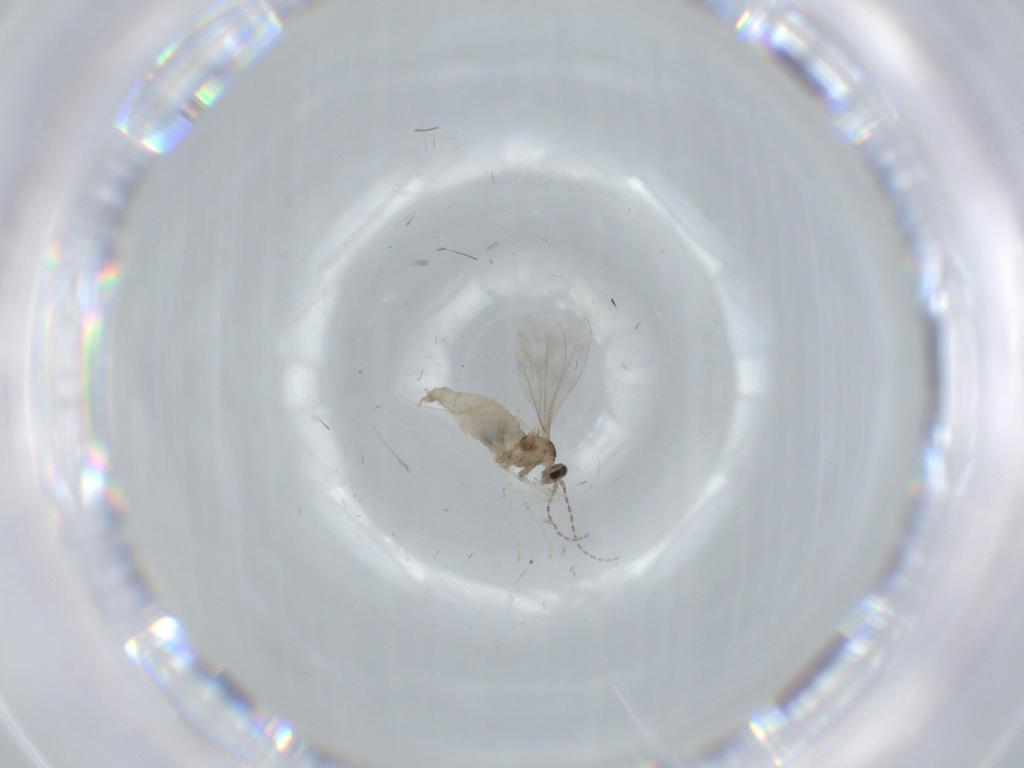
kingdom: Animalia
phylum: Arthropoda
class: Insecta
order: Diptera
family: Cecidomyiidae
